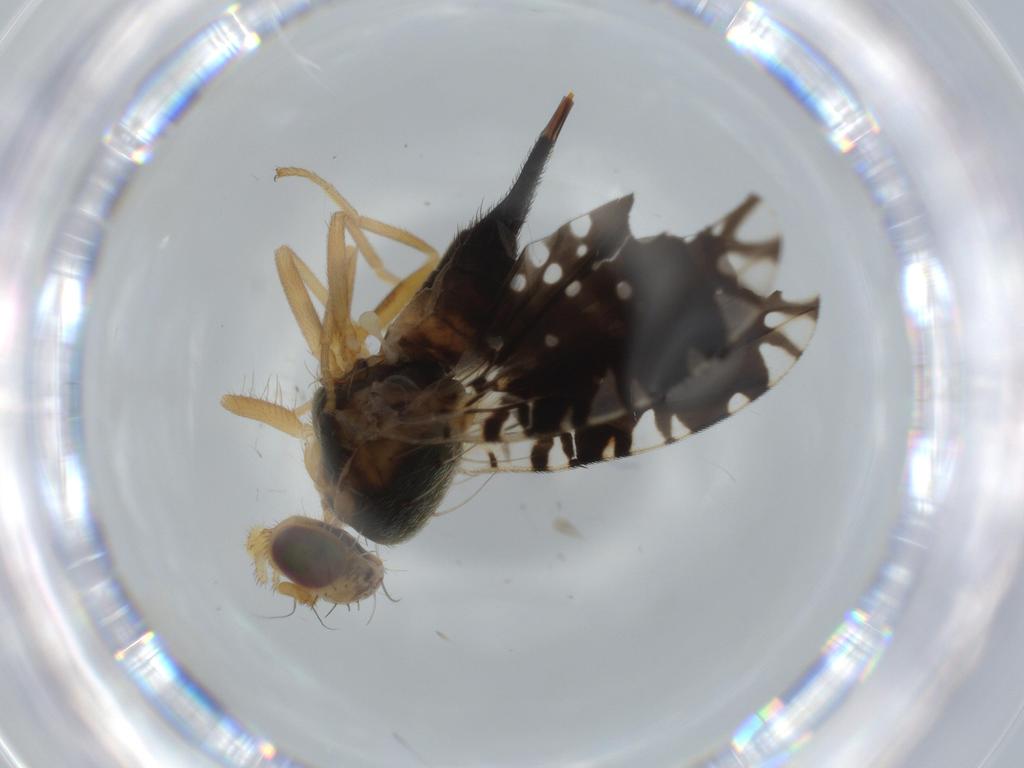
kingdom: Animalia
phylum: Arthropoda
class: Insecta
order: Diptera
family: Tephritidae
